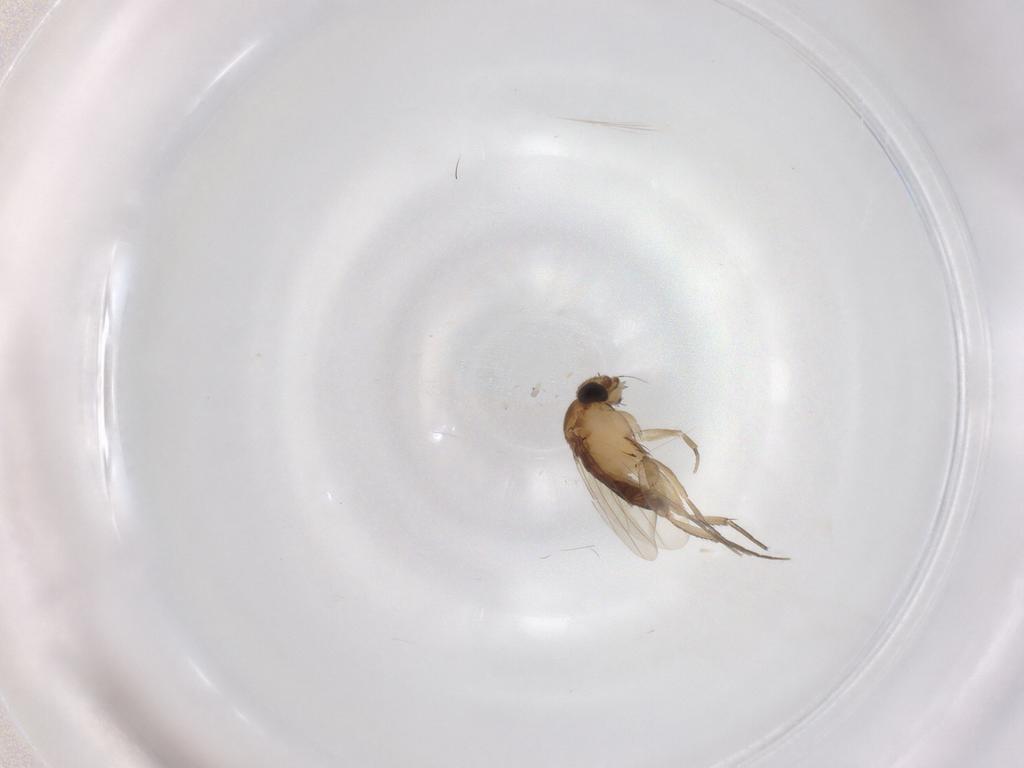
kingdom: Animalia
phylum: Arthropoda
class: Insecta
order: Diptera
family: Phoridae
